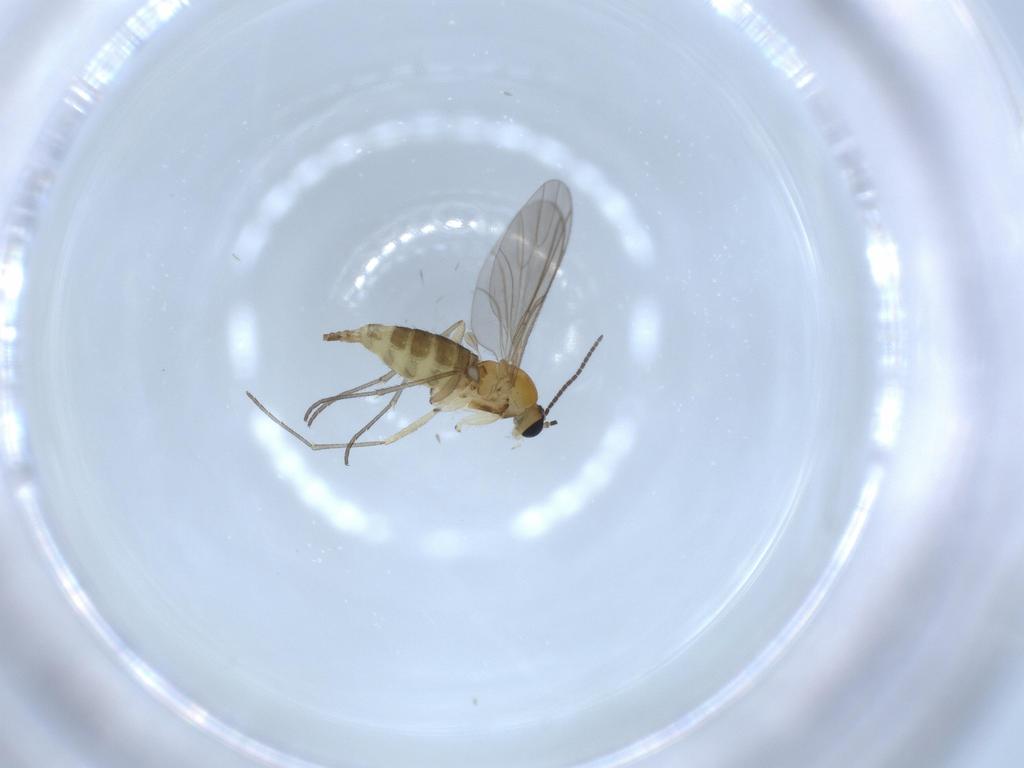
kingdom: Animalia
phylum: Arthropoda
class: Insecta
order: Diptera
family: Sciaridae
